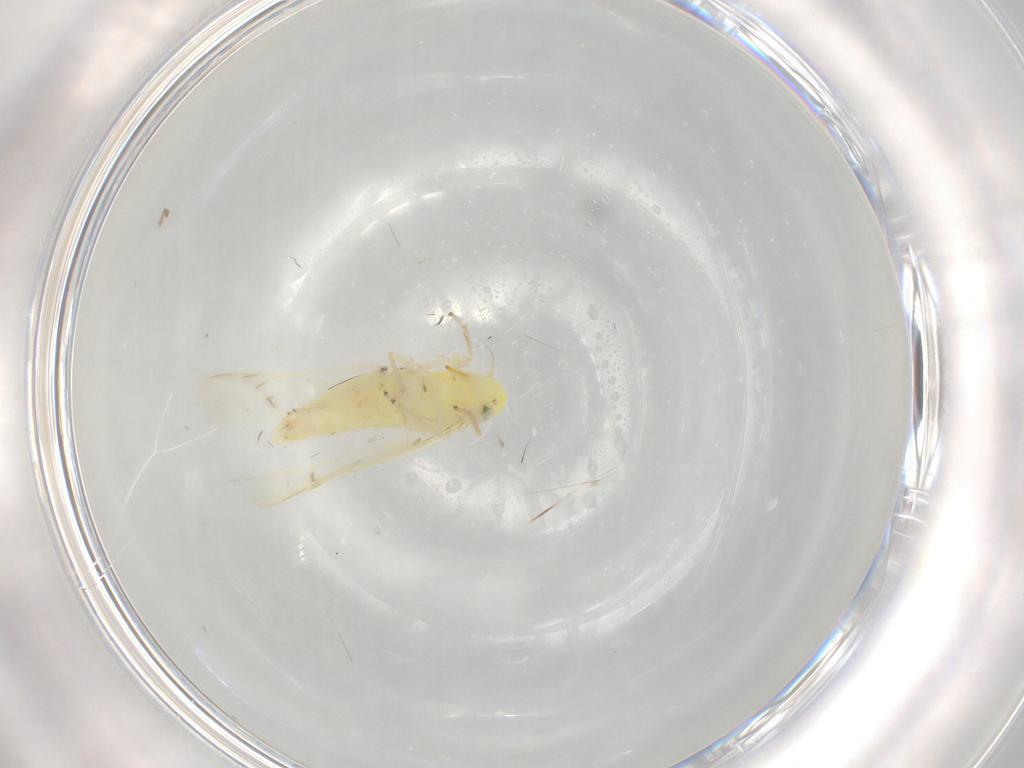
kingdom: Animalia
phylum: Arthropoda
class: Insecta
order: Hemiptera
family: Cicadellidae
